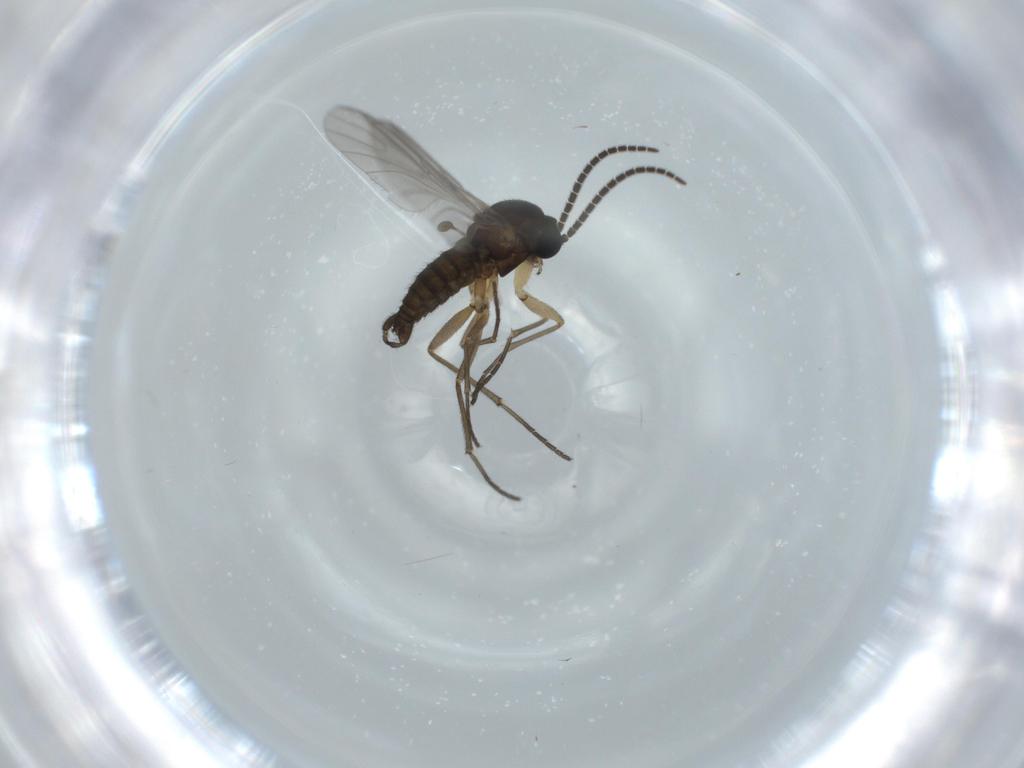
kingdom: Animalia
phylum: Arthropoda
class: Insecta
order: Diptera
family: Sciaridae
